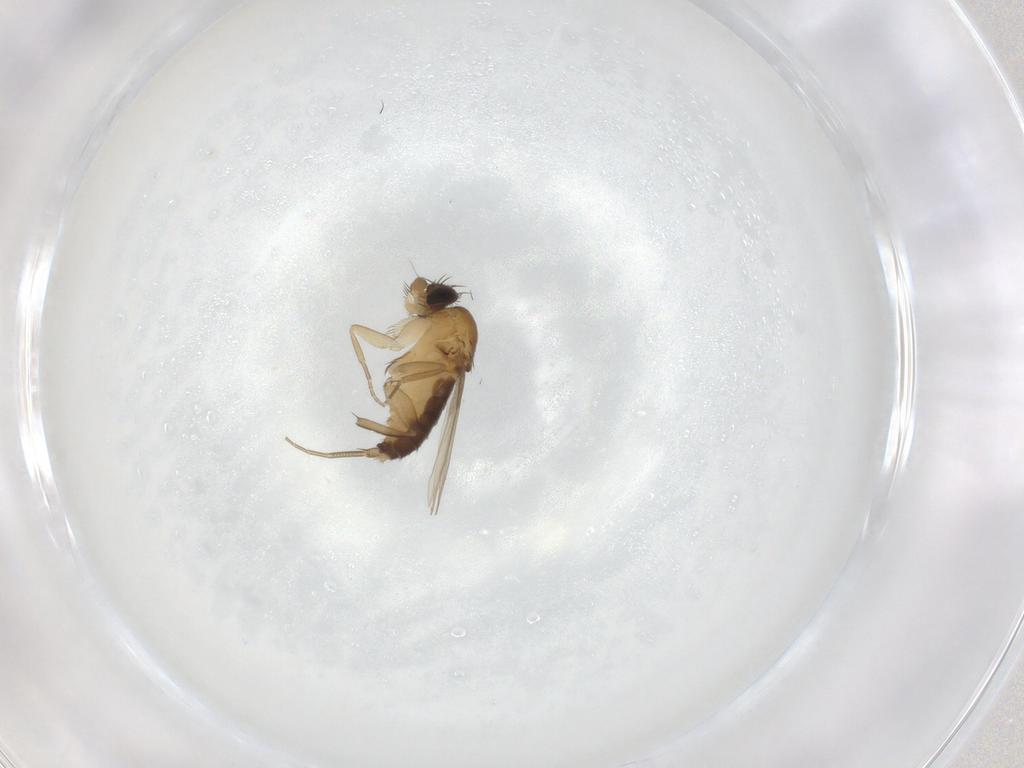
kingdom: Animalia
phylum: Arthropoda
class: Insecta
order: Diptera
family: Phoridae
